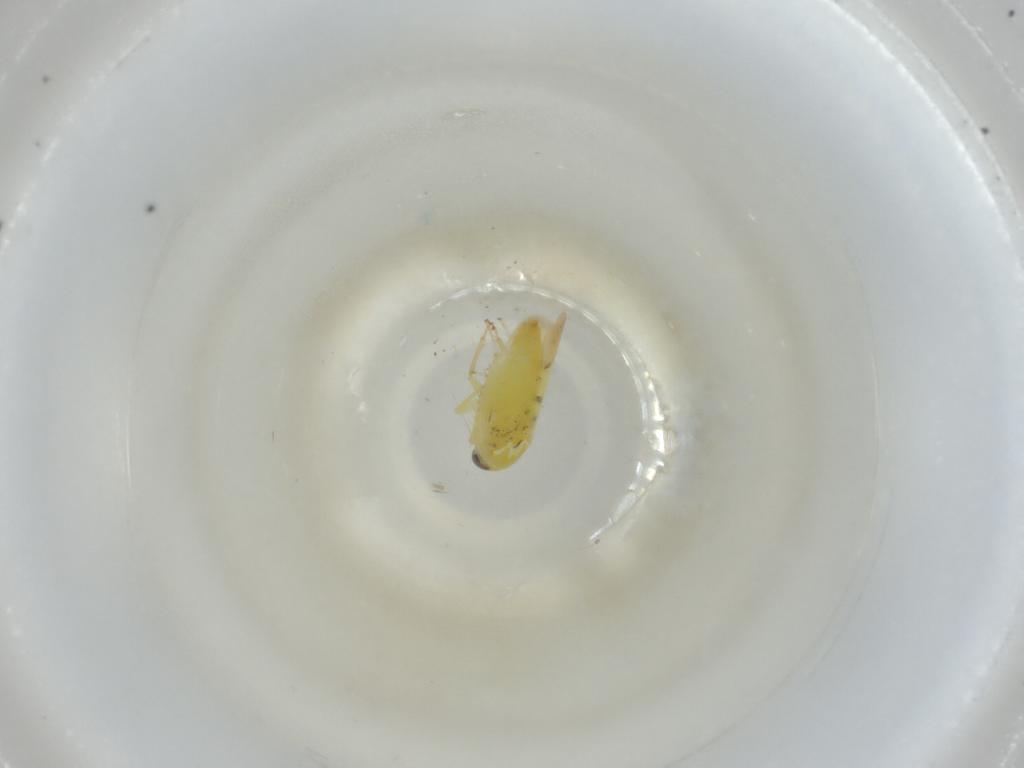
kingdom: Animalia
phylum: Arthropoda
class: Insecta
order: Hemiptera
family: Cicadellidae
